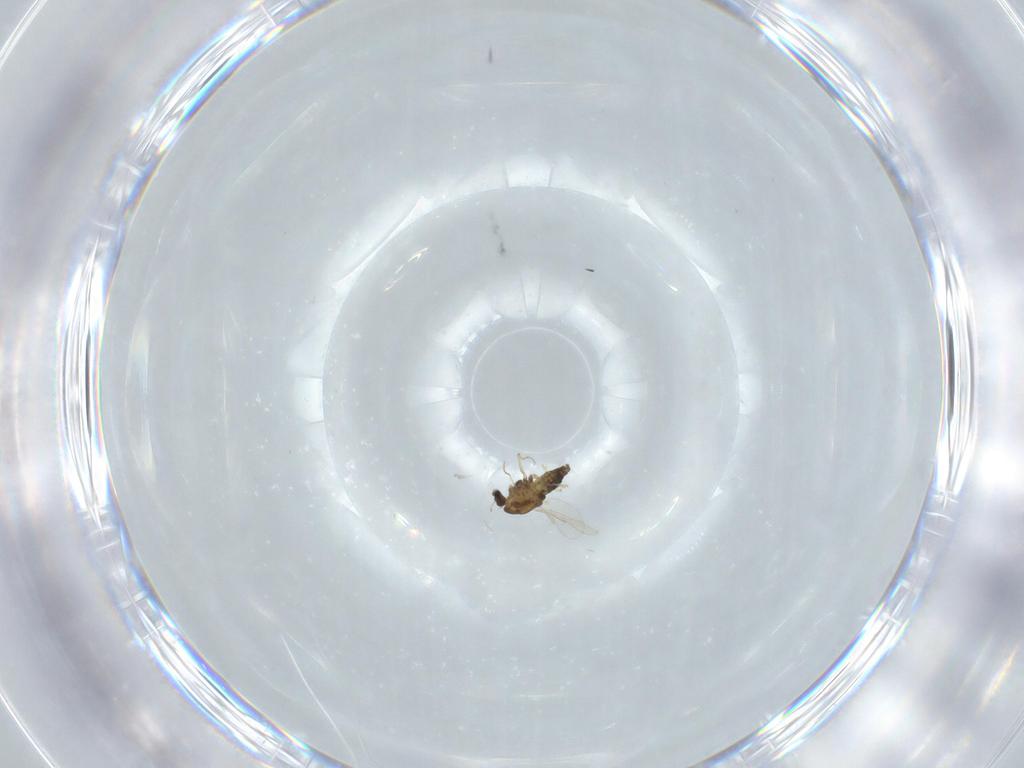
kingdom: Animalia
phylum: Arthropoda
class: Insecta
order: Diptera
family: Chironomidae
